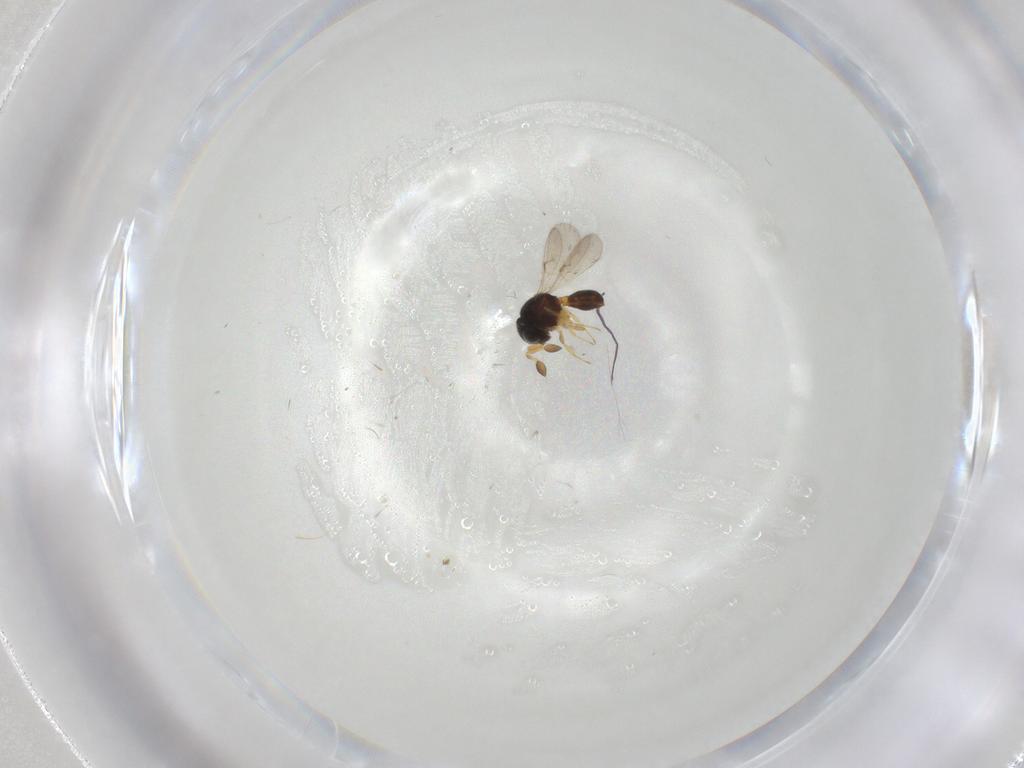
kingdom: Animalia
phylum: Arthropoda
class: Insecta
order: Hymenoptera
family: Scelionidae
